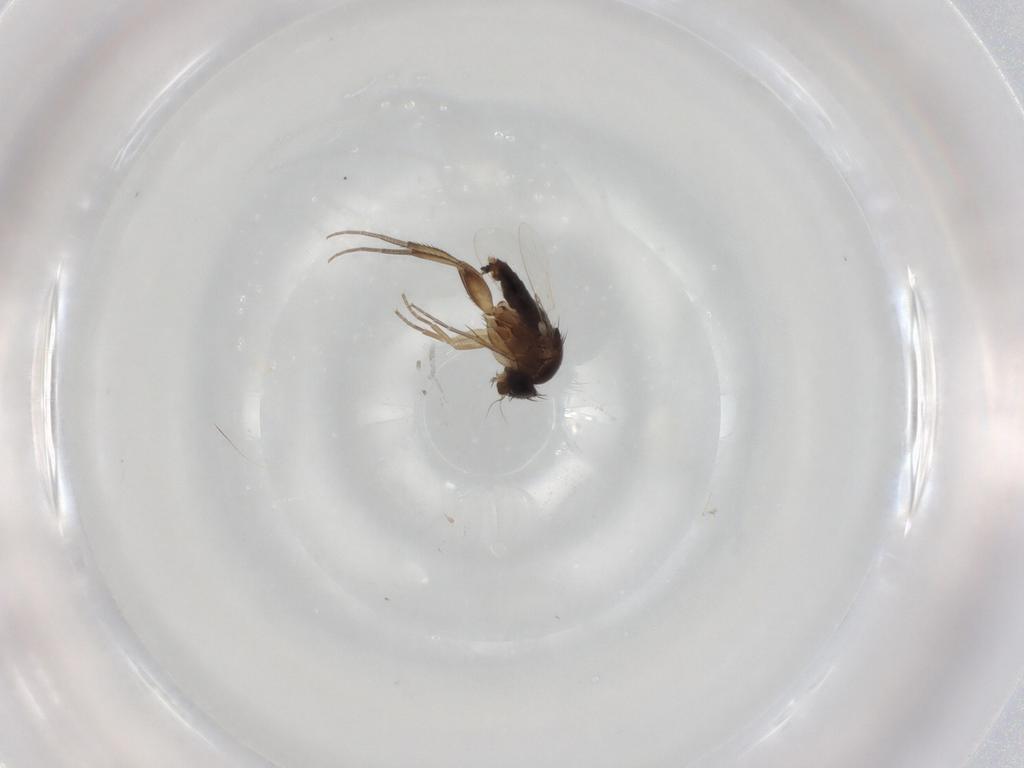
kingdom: Animalia
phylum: Arthropoda
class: Insecta
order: Diptera
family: Phoridae
